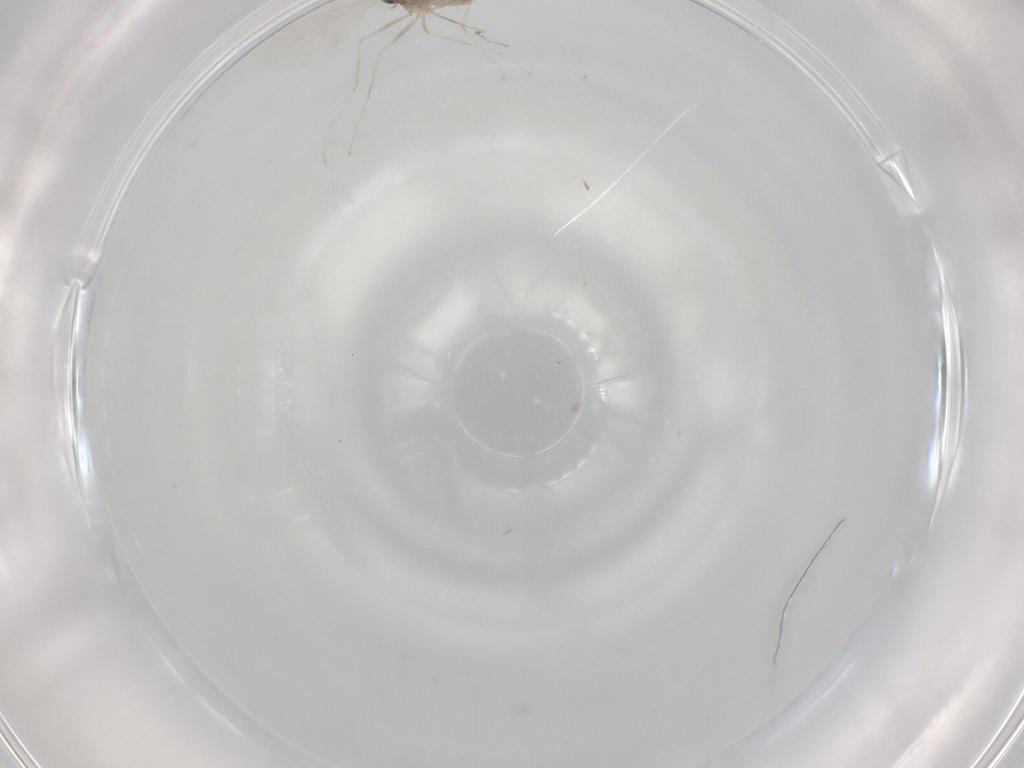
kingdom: Animalia
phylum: Arthropoda
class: Insecta
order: Diptera
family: Cecidomyiidae
